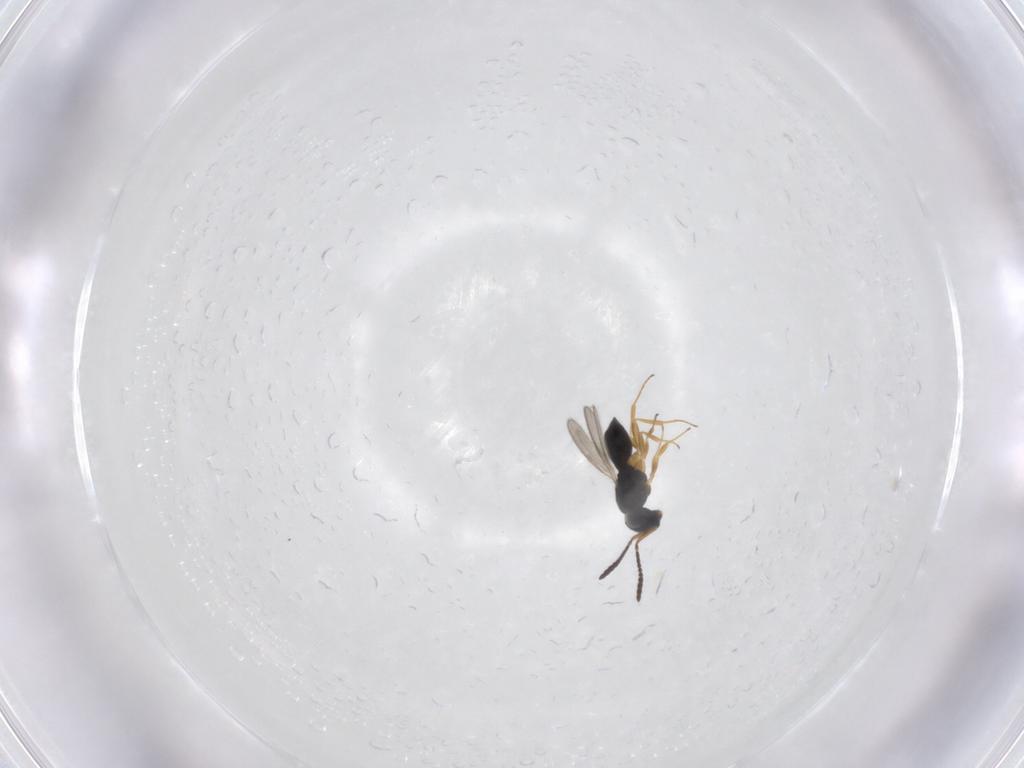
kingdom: Animalia
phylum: Arthropoda
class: Insecta
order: Hymenoptera
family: Scelionidae
